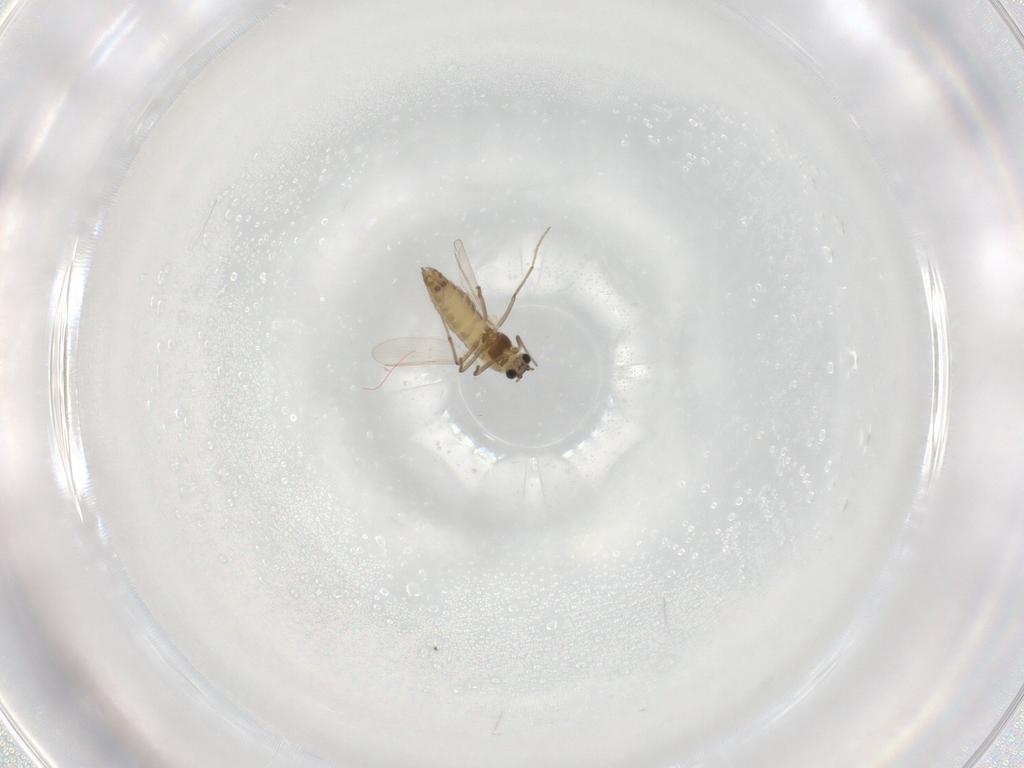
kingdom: Animalia
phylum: Arthropoda
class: Insecta
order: Diptera
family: Chironomidae
